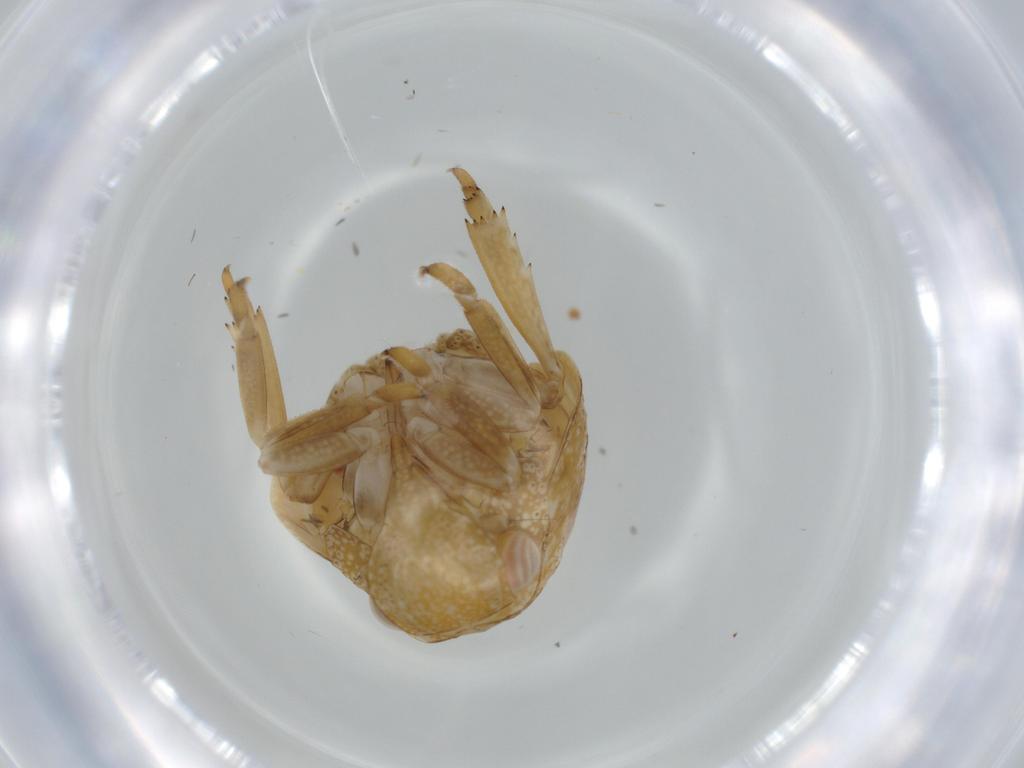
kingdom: Animalia
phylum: Arthropoda
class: Insecta
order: Hemiptera
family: Acanaloniidae
